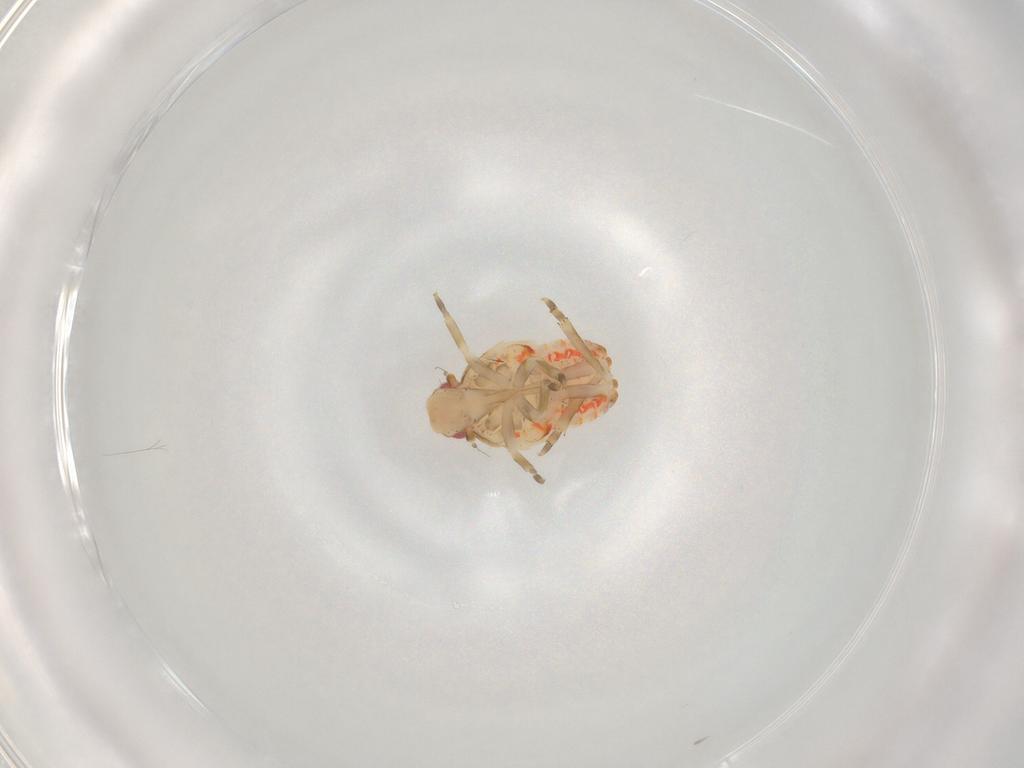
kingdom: Animalia
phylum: Arthropoda
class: Insecta
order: Hemiptera
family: Flatidae
